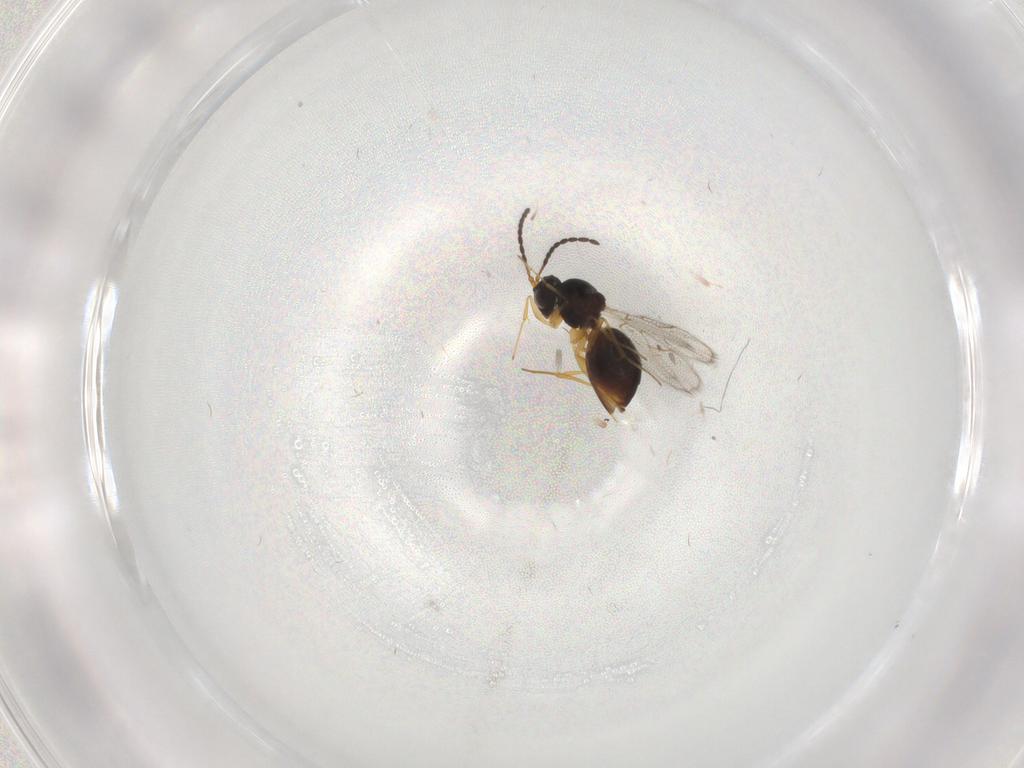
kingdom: Animalia
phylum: Arthropoda
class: Insecta
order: Hymenoptera
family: Figitidae
